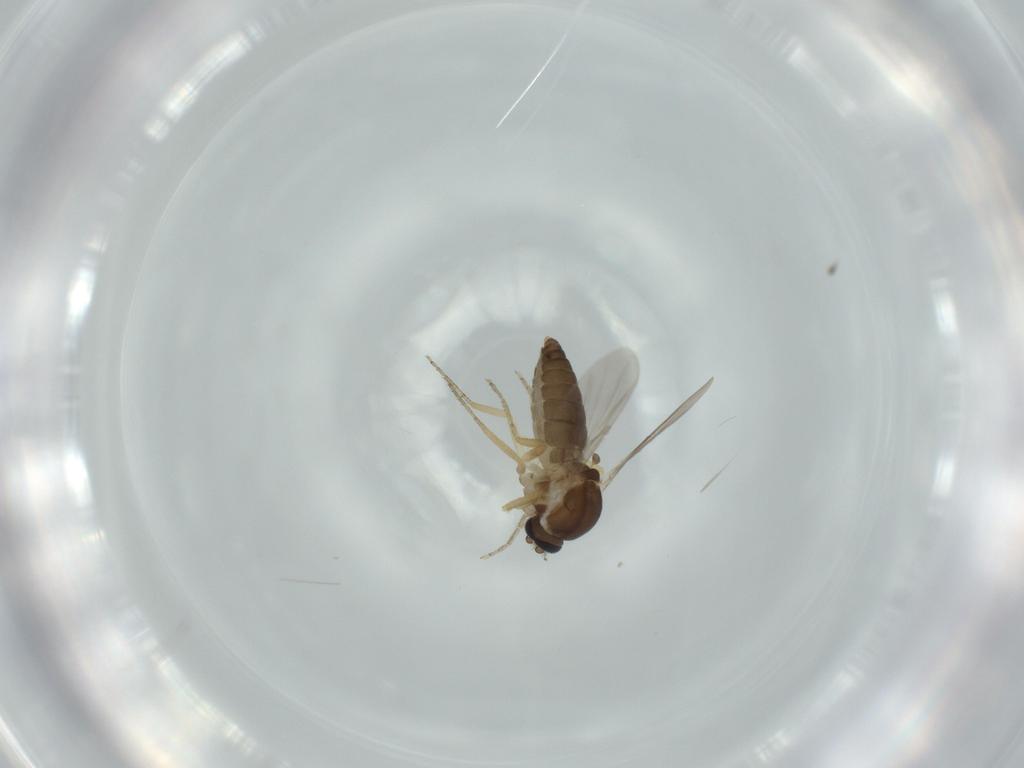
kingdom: Animalia
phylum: Arthropoda
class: Insecta
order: Diptera
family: Ceratopogonidae
